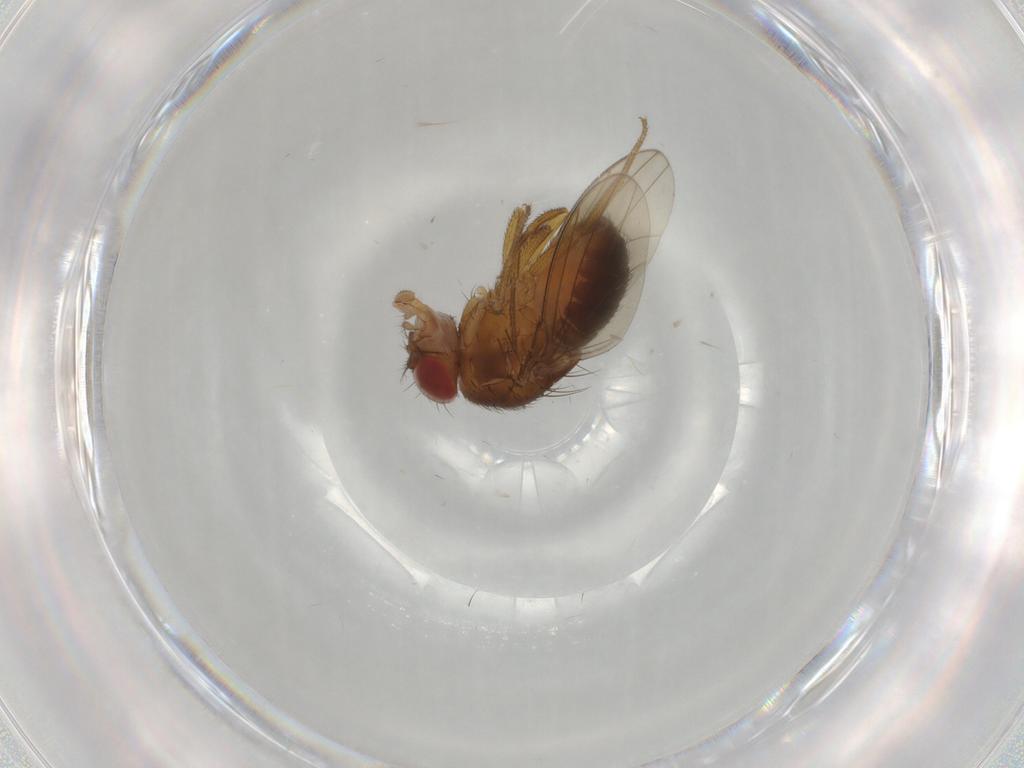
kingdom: Animalia
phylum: Arthropoda
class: Insecta
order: Diptera
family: Drosophilidae
